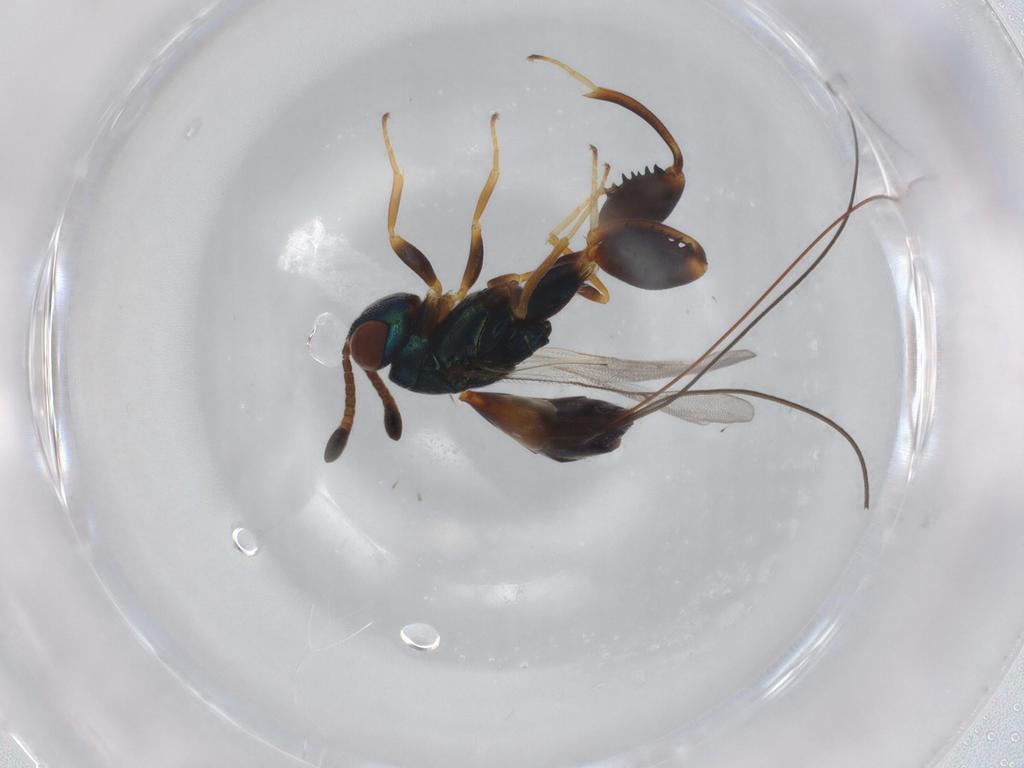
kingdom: Animalia
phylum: Arthropoda
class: Insecta
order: Hymenoptera
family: Torymidae
